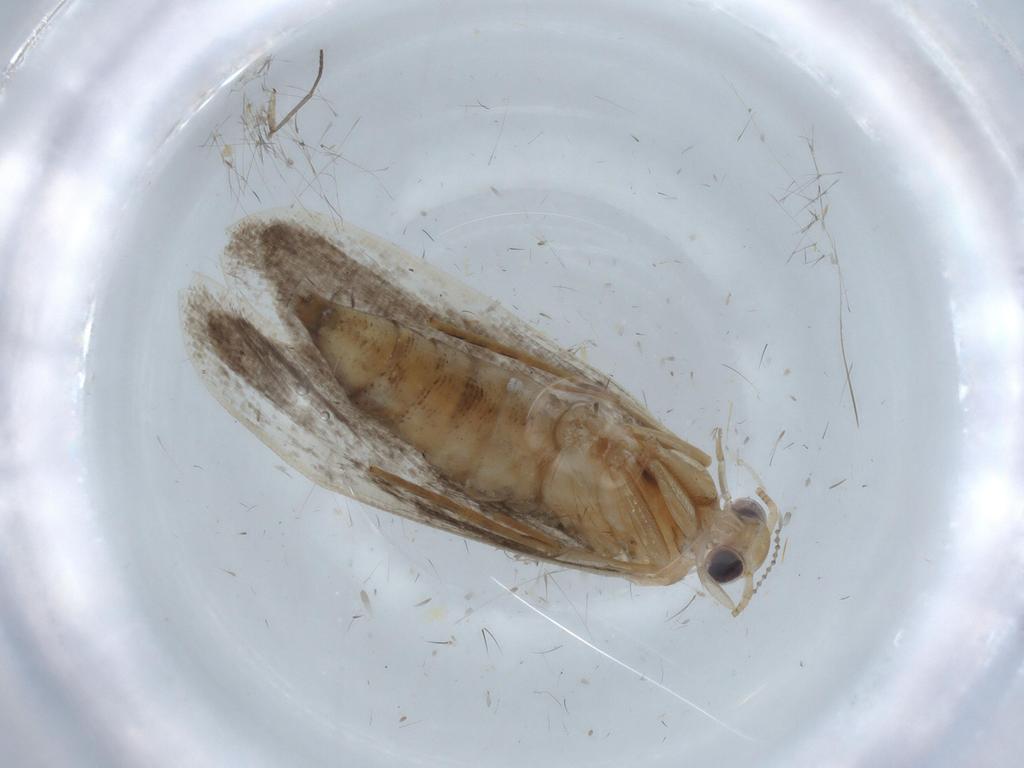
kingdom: Animalia
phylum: Arthropoda
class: Insecta
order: Lepidoptera
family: Tineidae
